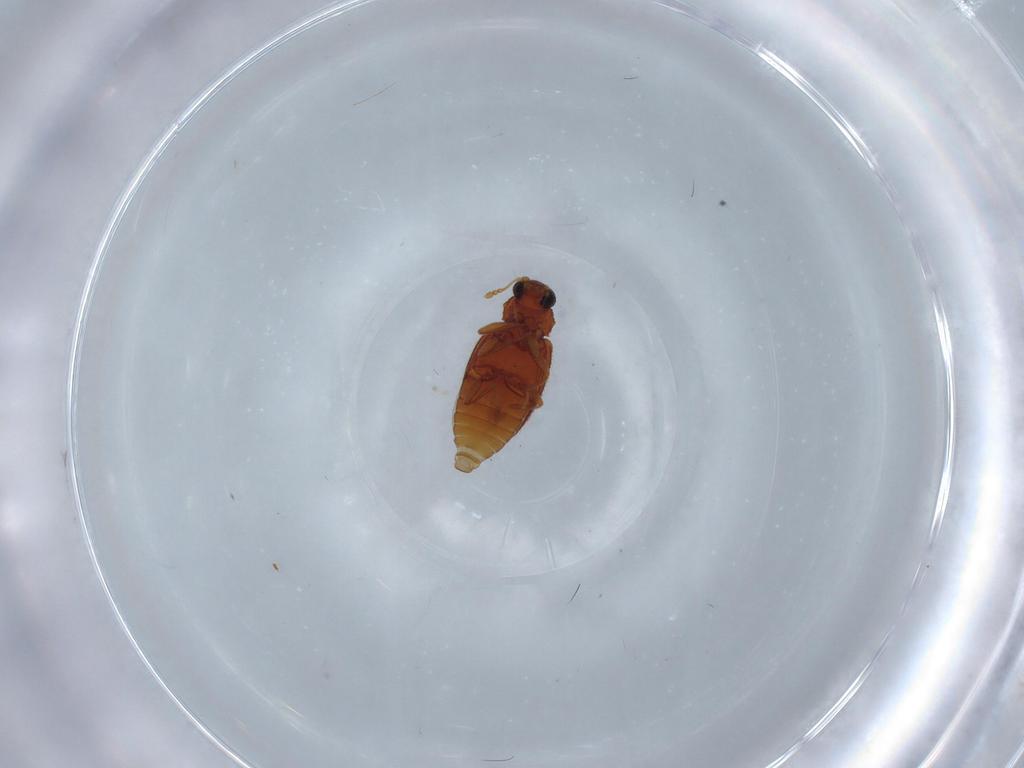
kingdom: Animalia
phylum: Arthropoda
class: Insecta
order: Coleoptera
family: Latridiidae
